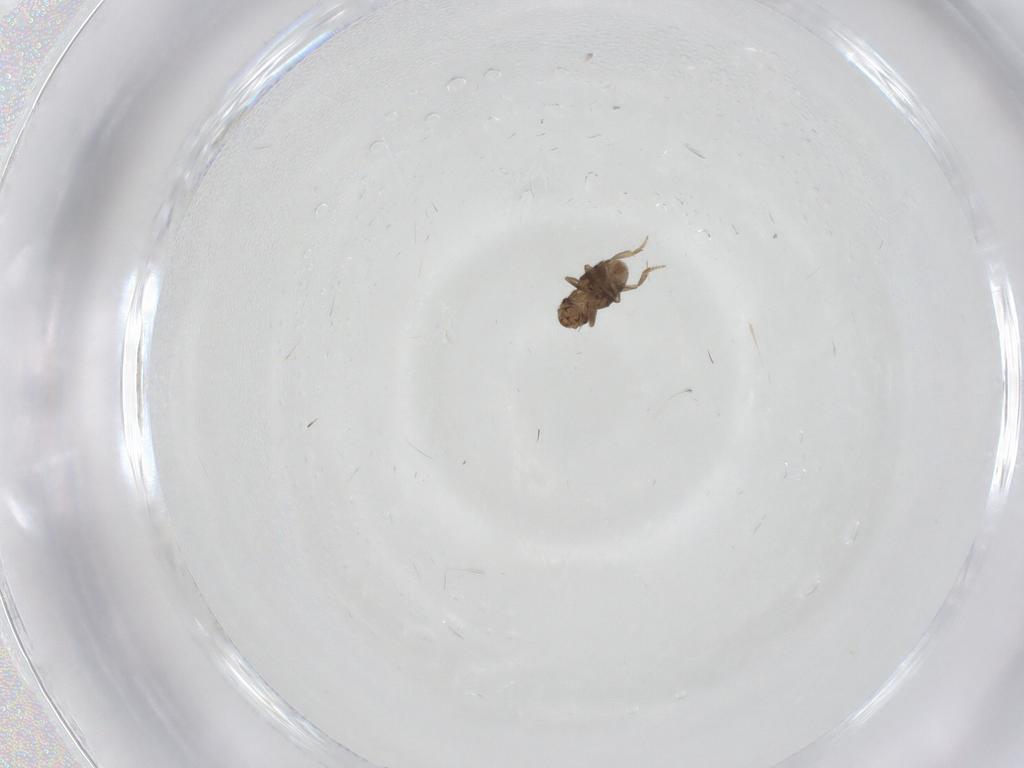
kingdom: Animalia
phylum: Arthropoda
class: Insecta
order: Diptera
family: Phoridae
